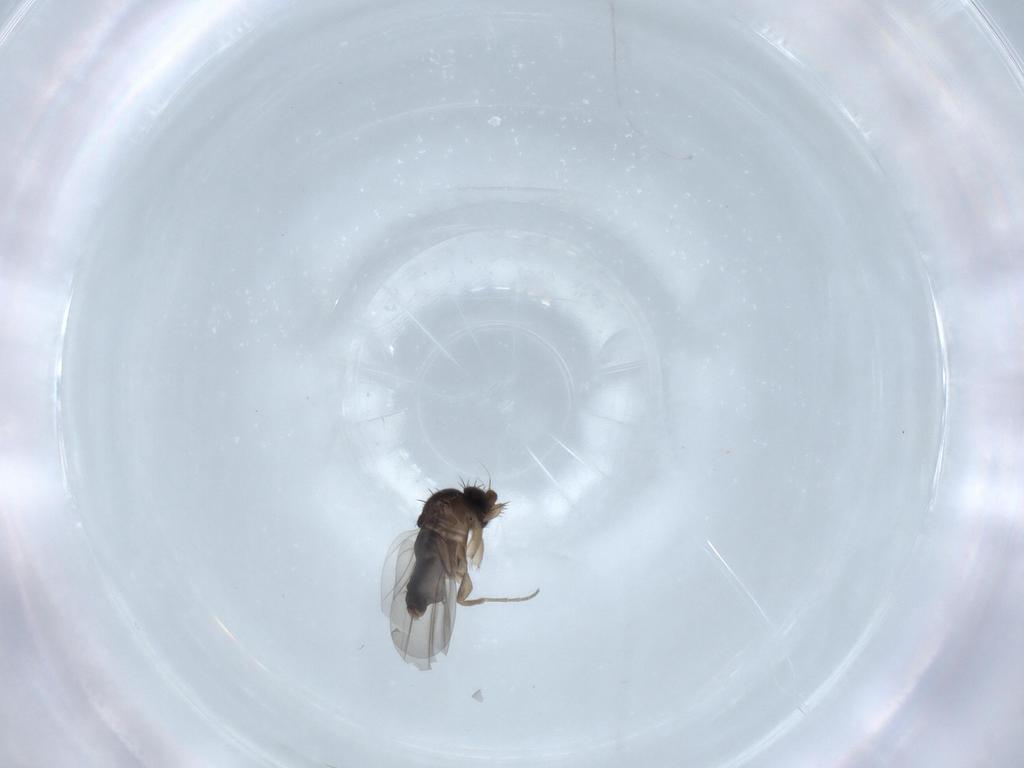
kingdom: Animalia
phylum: Arthropoda
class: Insecta
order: Diptera
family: Phoridae
